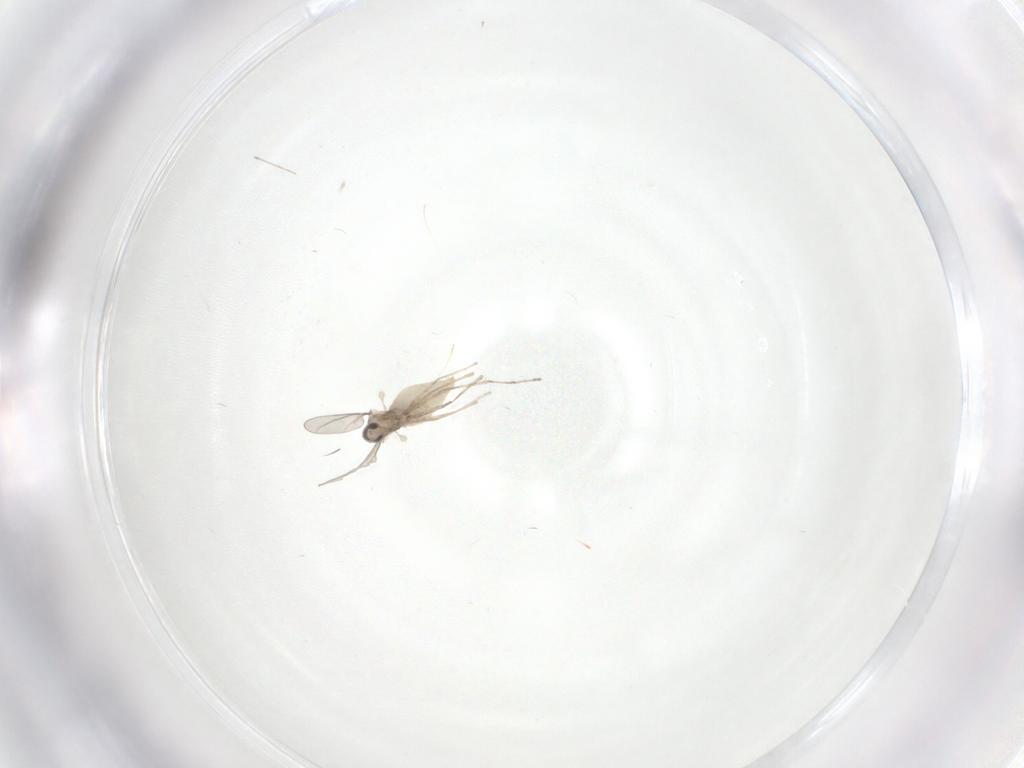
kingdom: Animalia
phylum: Arthropoda
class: Insecta
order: Diptera
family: Cecidomyiidae
